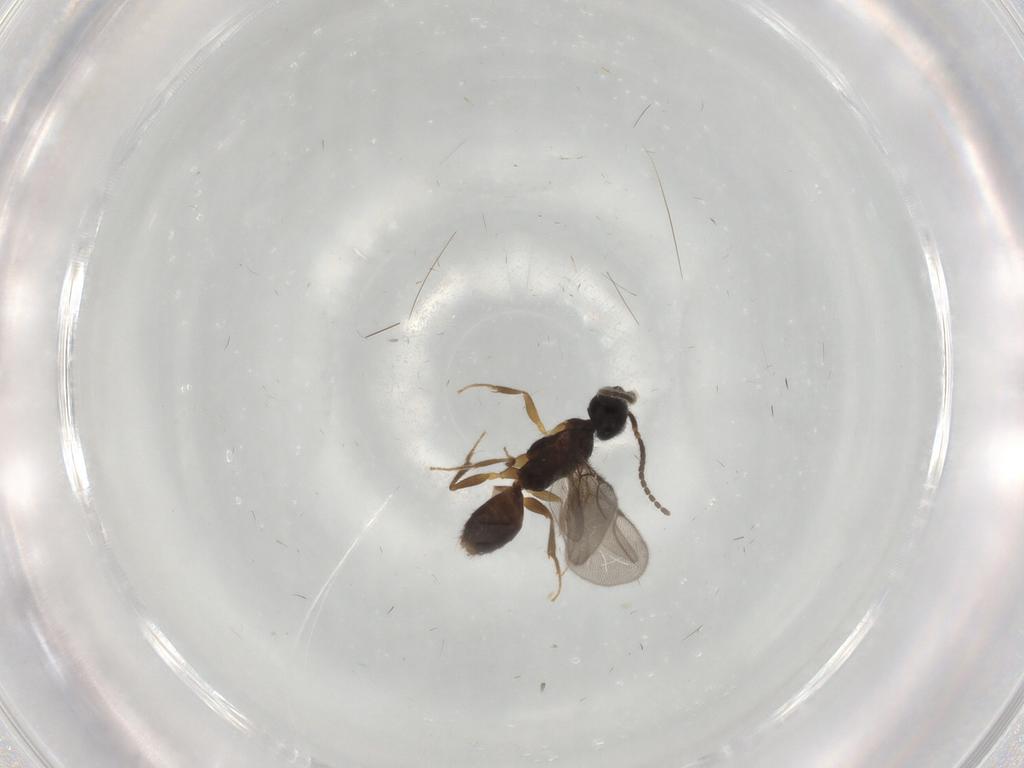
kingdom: Animalia
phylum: Arthropoda
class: Insecta
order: Hymenoptera
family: Bethylidae
